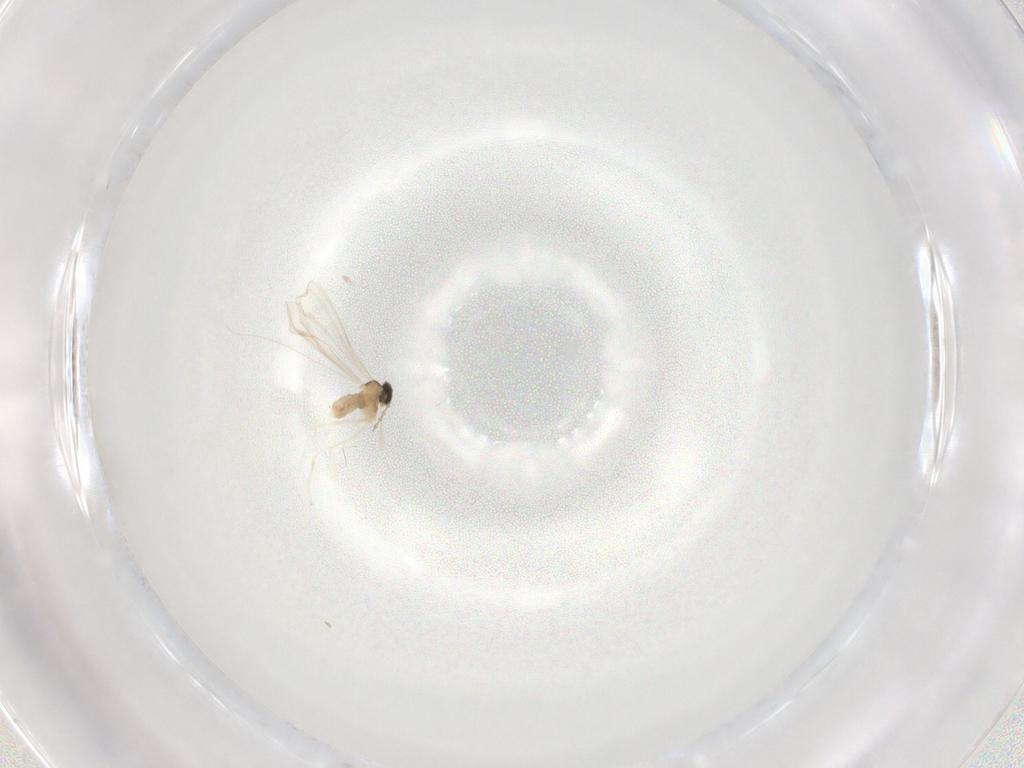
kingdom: Animalia
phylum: Arthropoda
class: Insecta
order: Diptera
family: Cecidomyiidae
